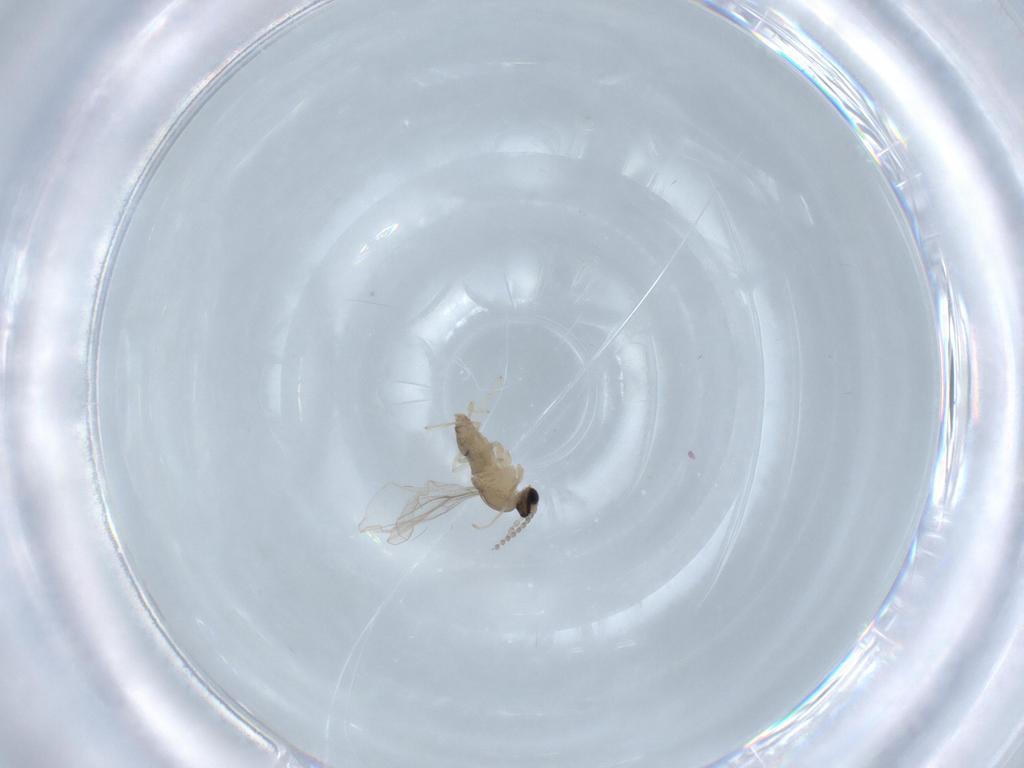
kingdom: Animalia
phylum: Arthropoda
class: Insecta
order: Diptera
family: Cecidomyiidae
